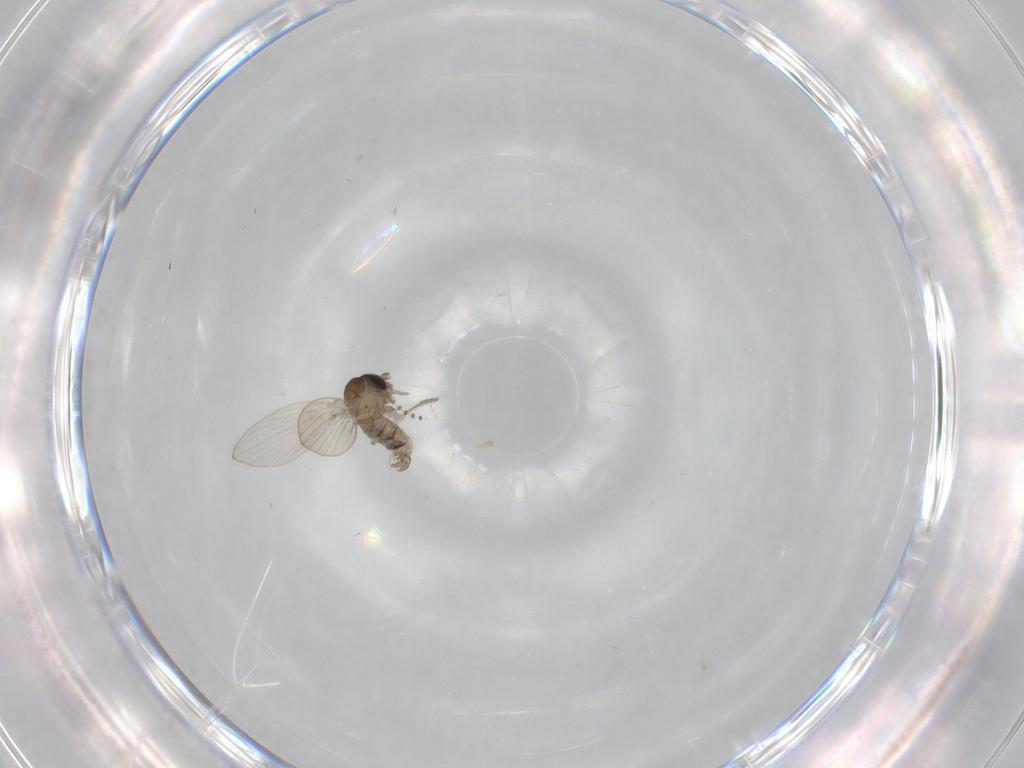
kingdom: Animalia
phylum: Arthropoda
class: Insecta
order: Diptera
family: Psychodidae
